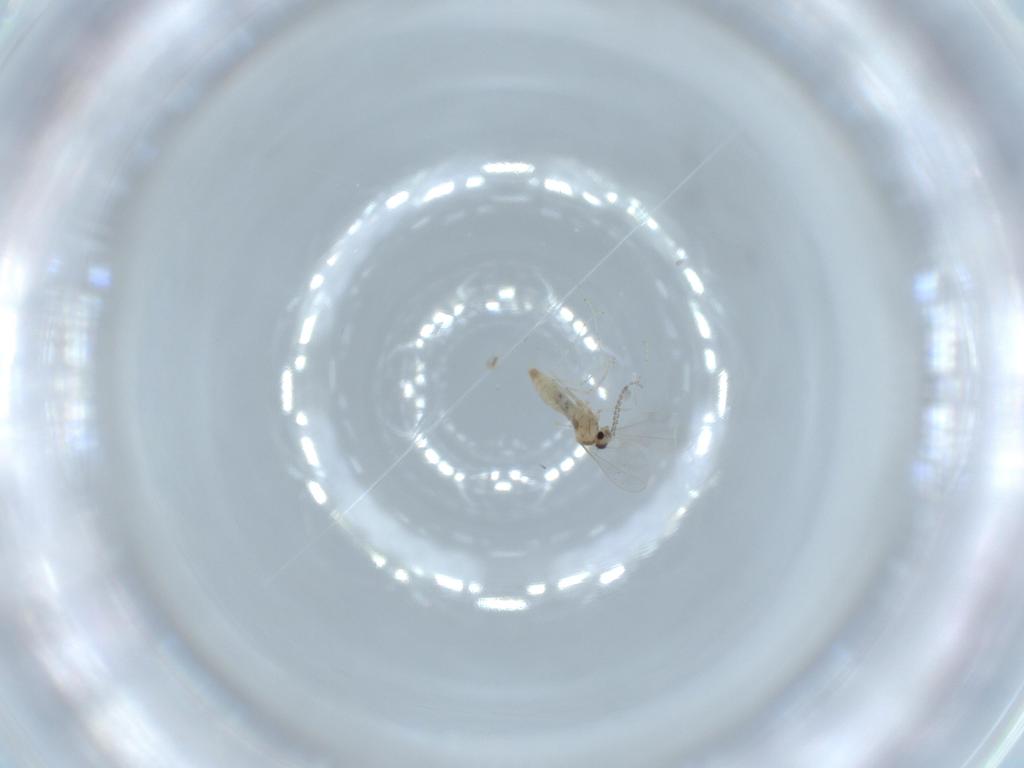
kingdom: Animalia
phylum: Arthropoda
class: Insecta
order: Diptera
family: Cecidomyiidae
